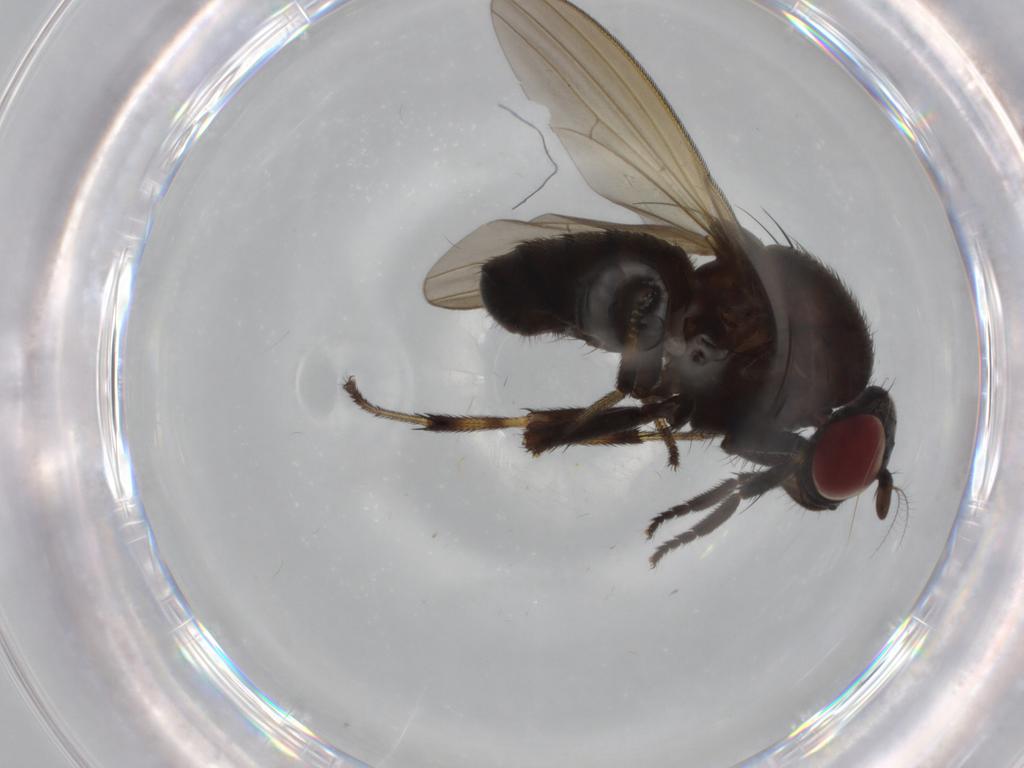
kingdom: Animalia
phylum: Arthropoda
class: Insecta
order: Diptera
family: Lauxaniidae
